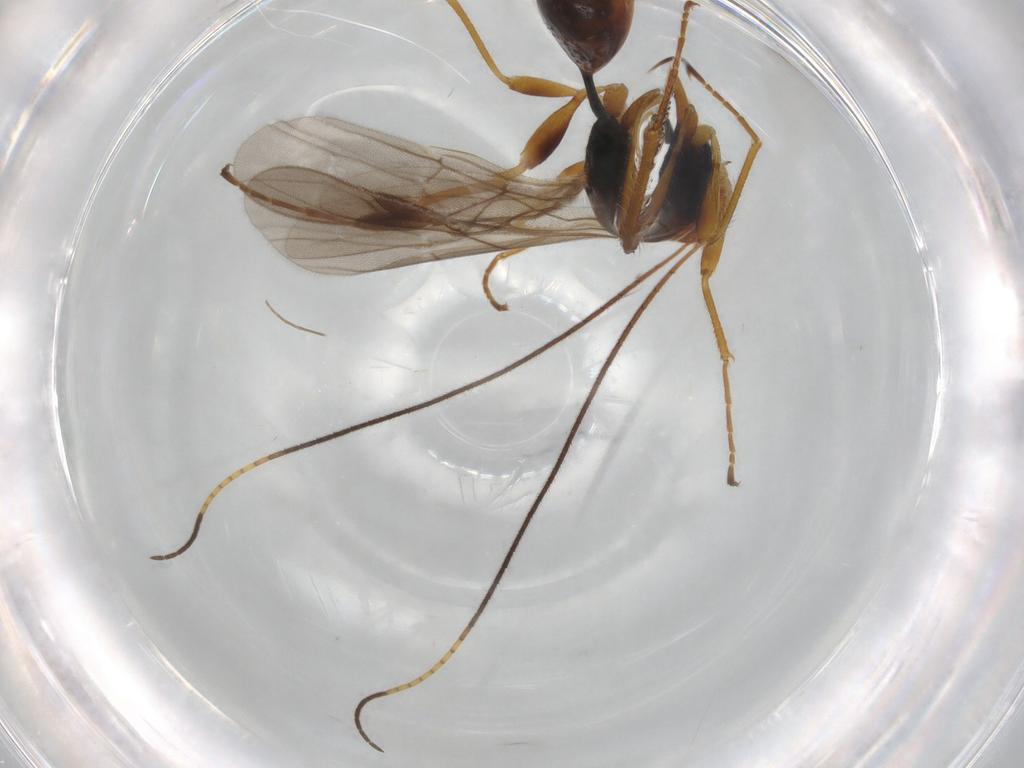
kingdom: Animalia
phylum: Arthropoda
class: Insecta
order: Hymenoptera
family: Braconidae
